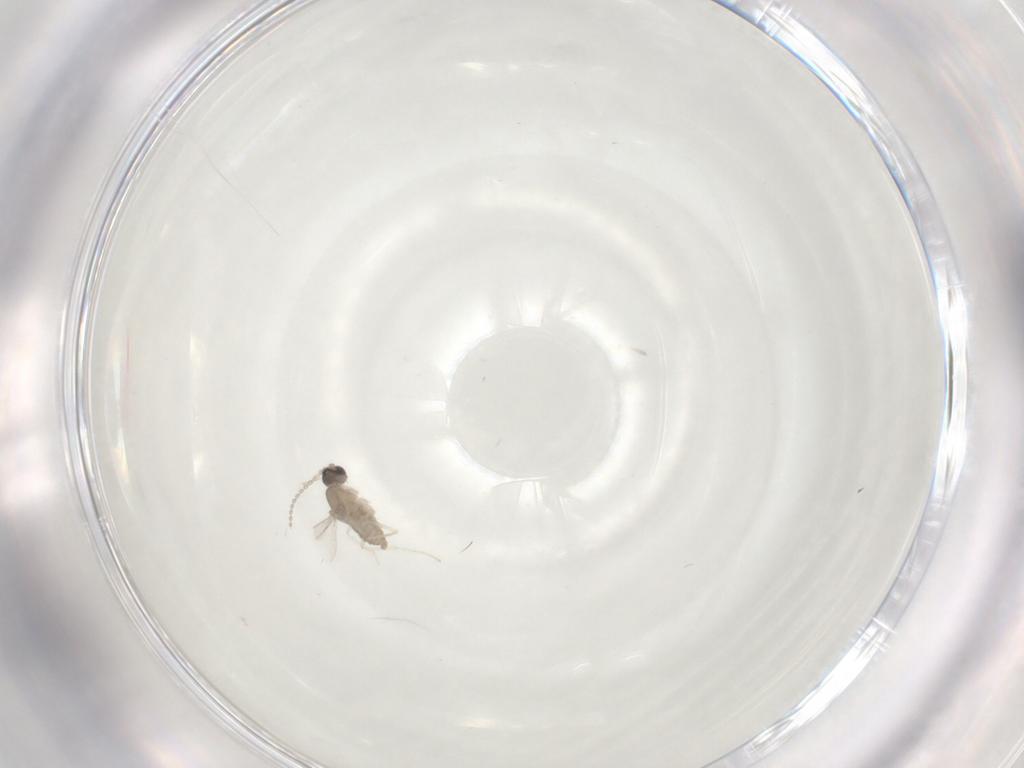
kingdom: Animalia
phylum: Arthropoda
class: Insecta
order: Diptera
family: Cecidomyiidae
